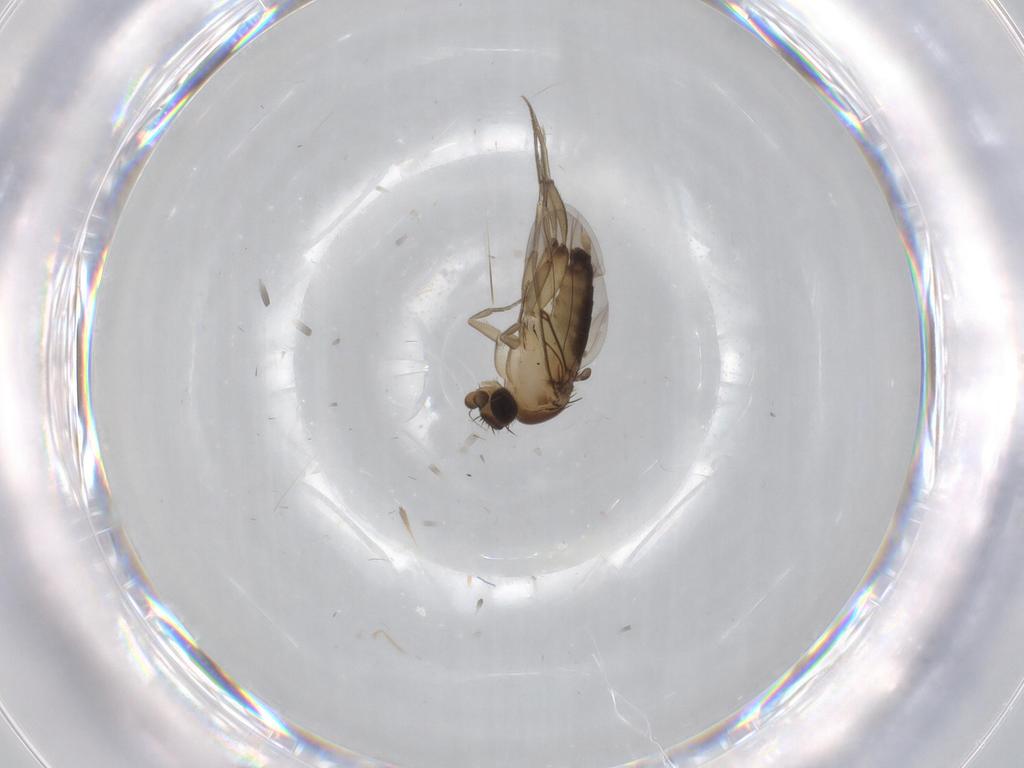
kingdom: Animalia
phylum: Arthropoda
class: Insecta
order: Diptera
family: Phoridae
